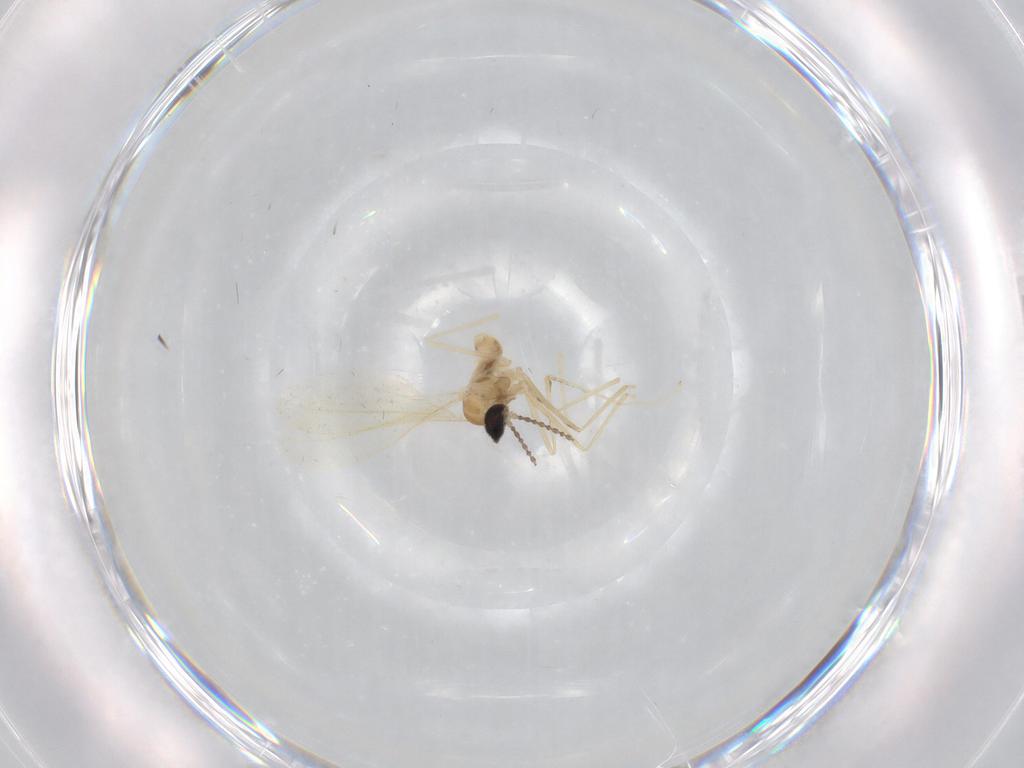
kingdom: Animalia
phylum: Arthropoda
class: Insecta
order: Diptera
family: Cecidomyiidae
